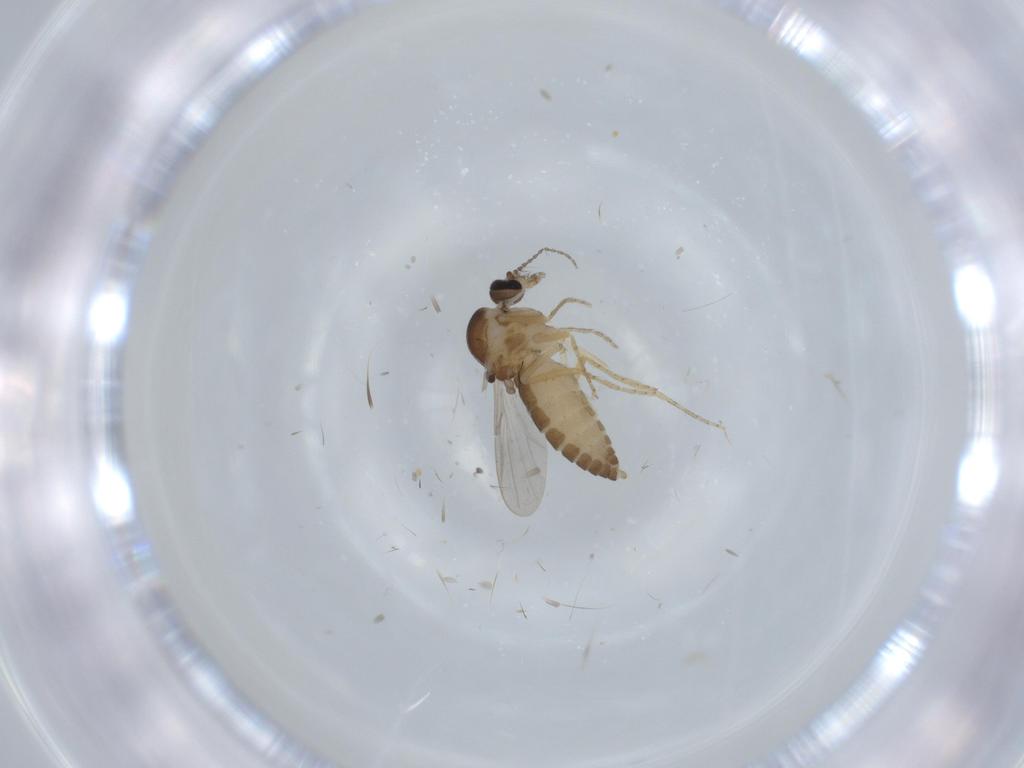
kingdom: Animalia
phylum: Arthropoda
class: Insecta
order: Diptera
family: Ceratopogonidae
